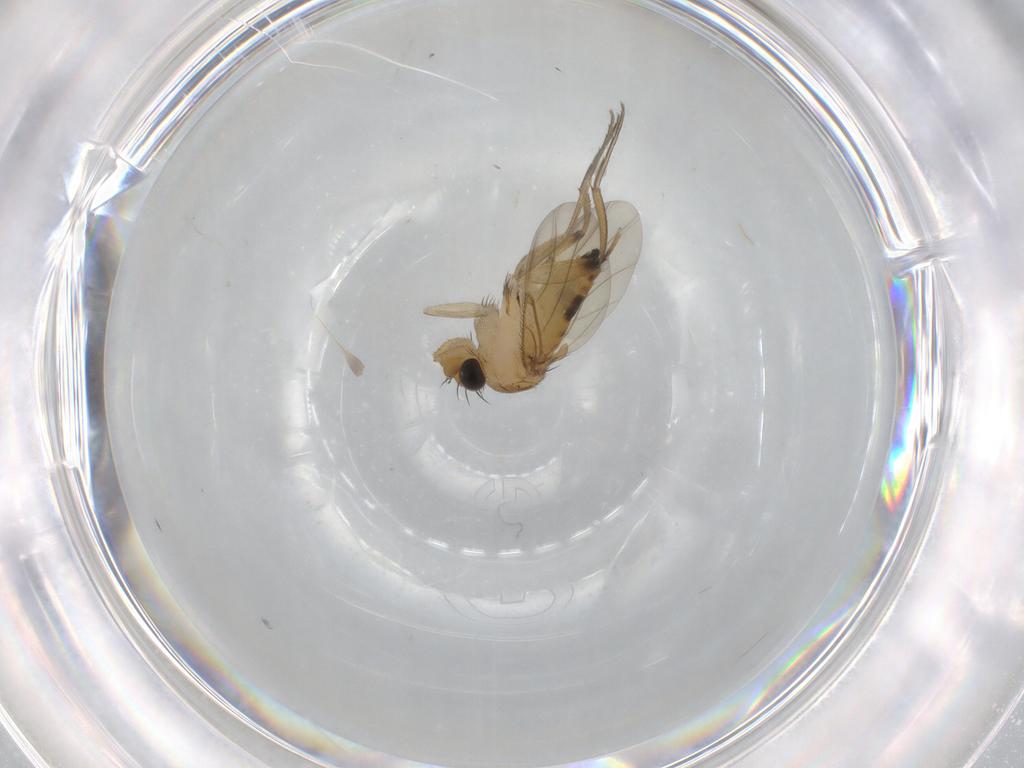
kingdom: Animalia
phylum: Arthropoda
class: Insecta
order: Diptera
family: Phoridae
